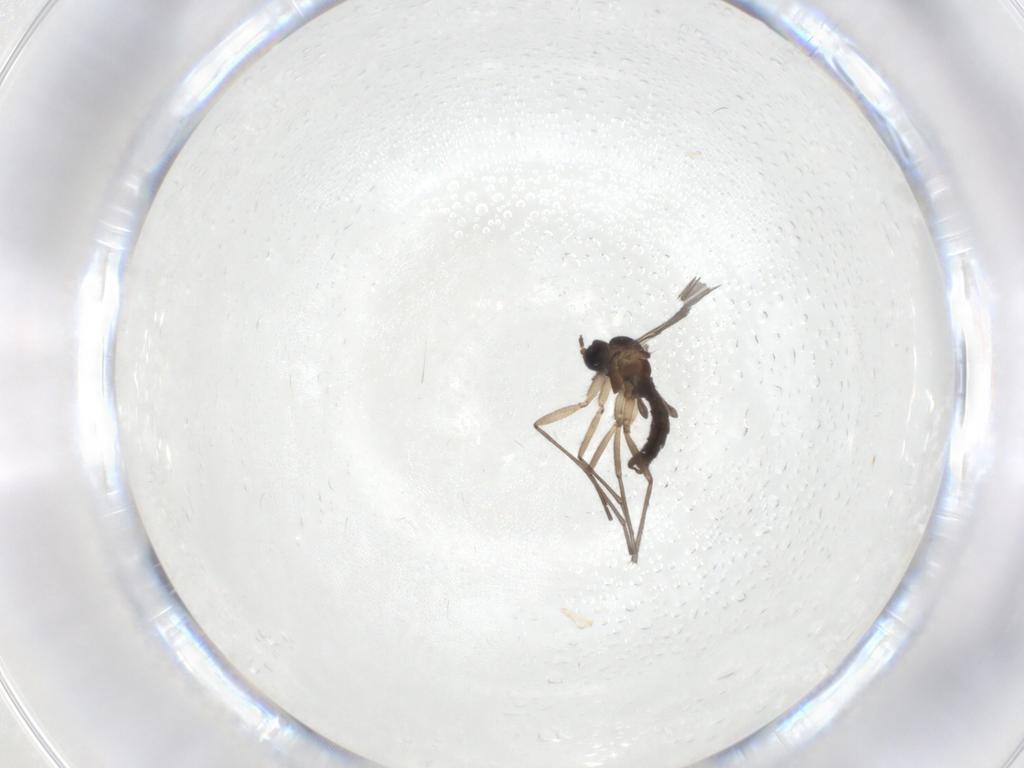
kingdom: Animalia
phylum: Arthropoda
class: Insecta
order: Diptera
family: Sciaridae
